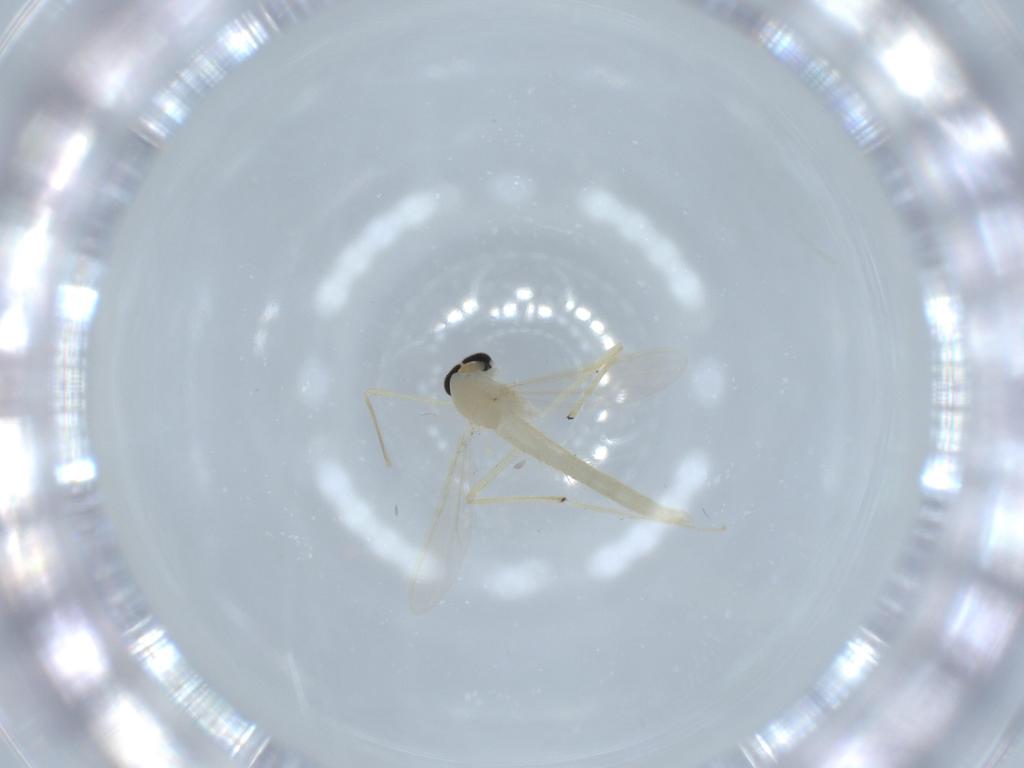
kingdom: Animalia
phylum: Arthropoda
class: Insecta
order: Diptera
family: Chironomidae
